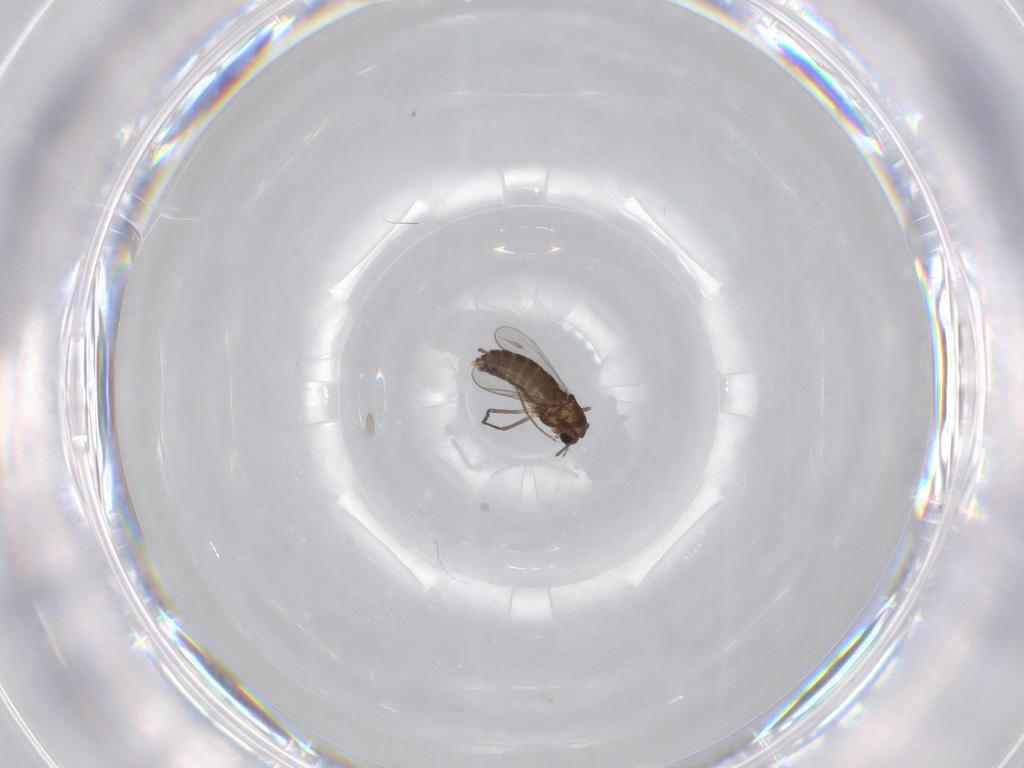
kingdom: Animalia
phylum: Arthropoda
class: Insecta
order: Diptera
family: Chironomidae
